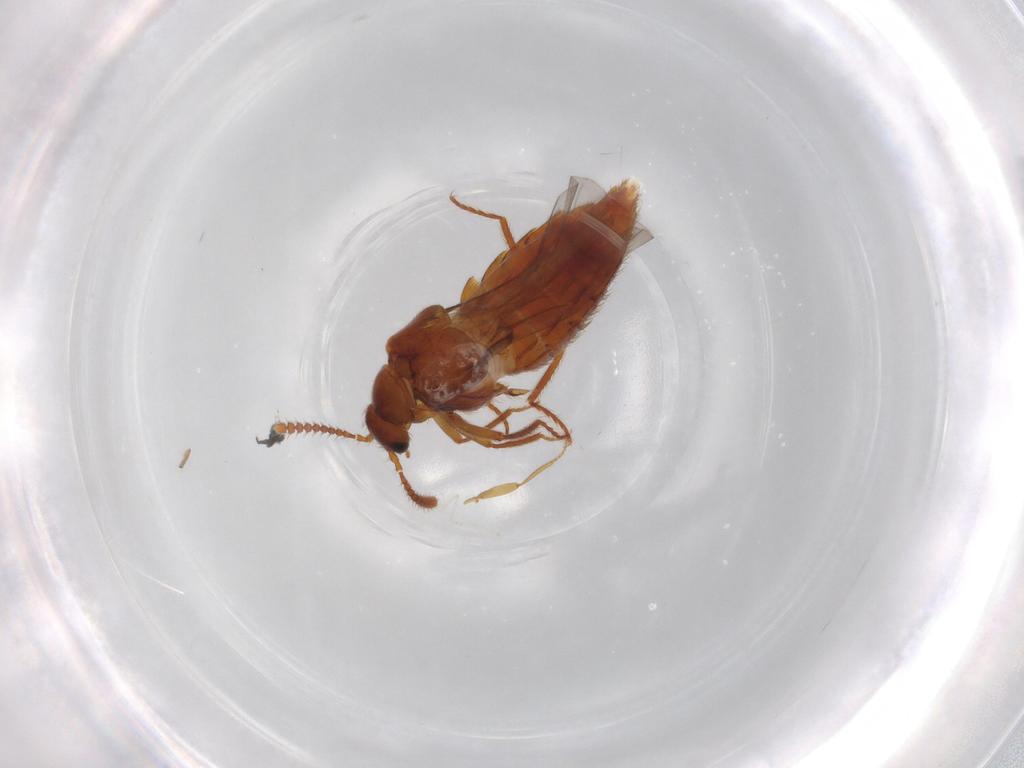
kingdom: Animalia
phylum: Arthropoda
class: Insecta
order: Coleoptera
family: Staphylinidae
